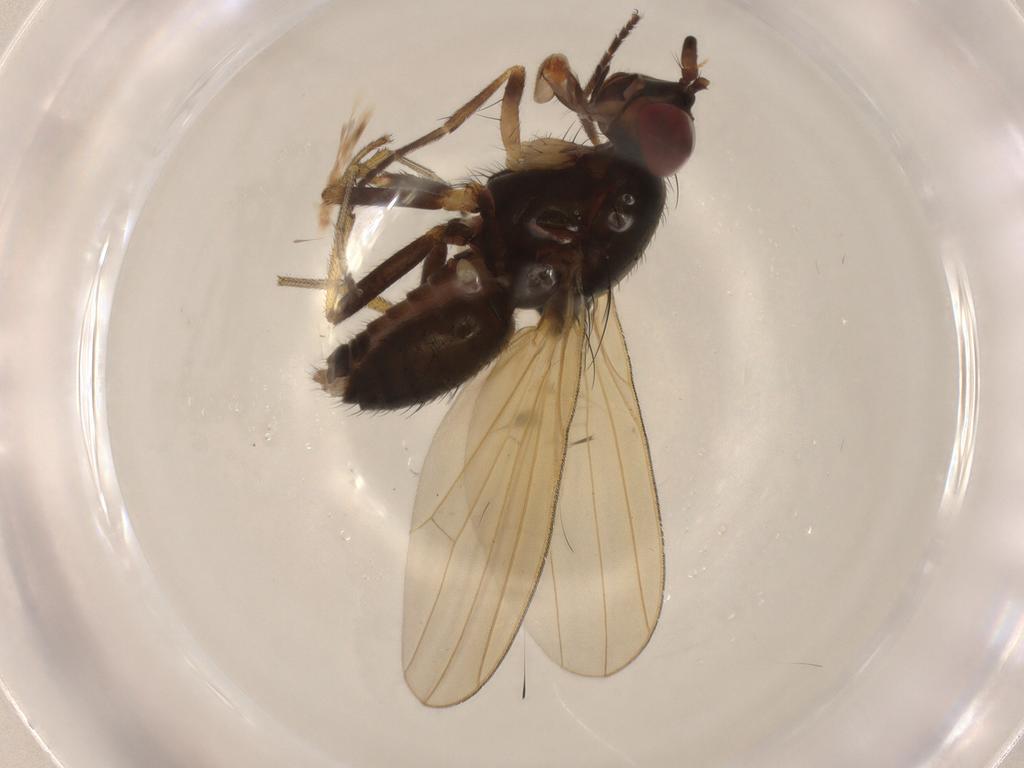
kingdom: Animalia
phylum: Arthropoda
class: Insecta
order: Diptera
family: Ceratopogonidae
